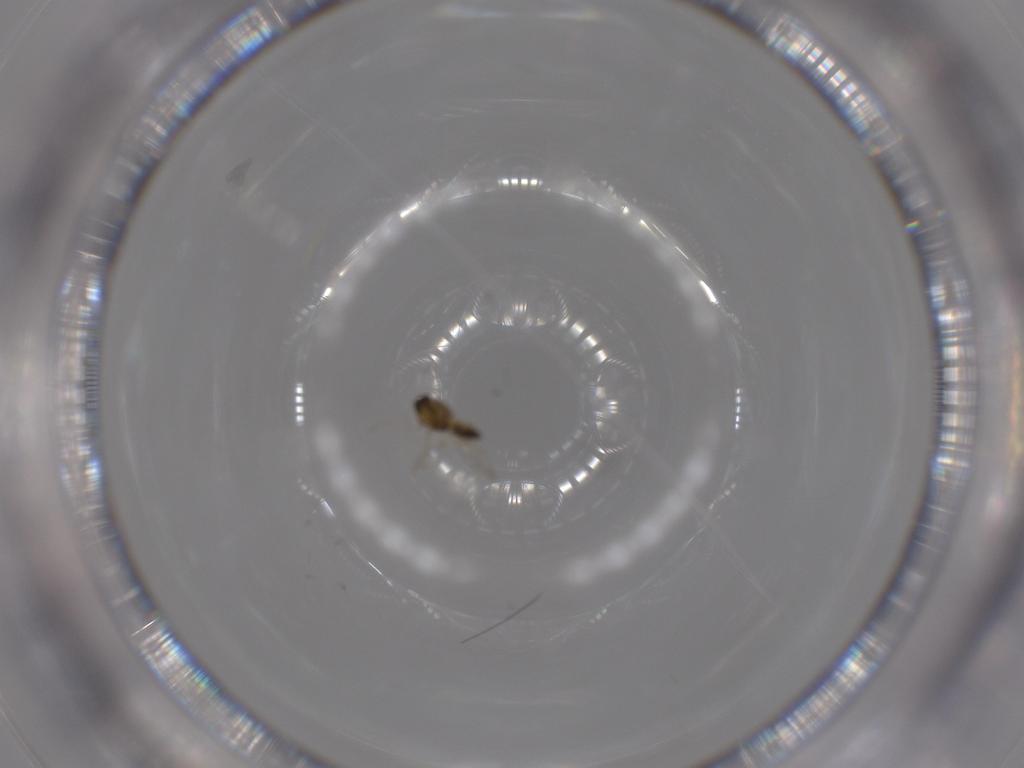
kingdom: Animalia
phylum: Arthropoda
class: Insecta
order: Diptera
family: Chironomidae
